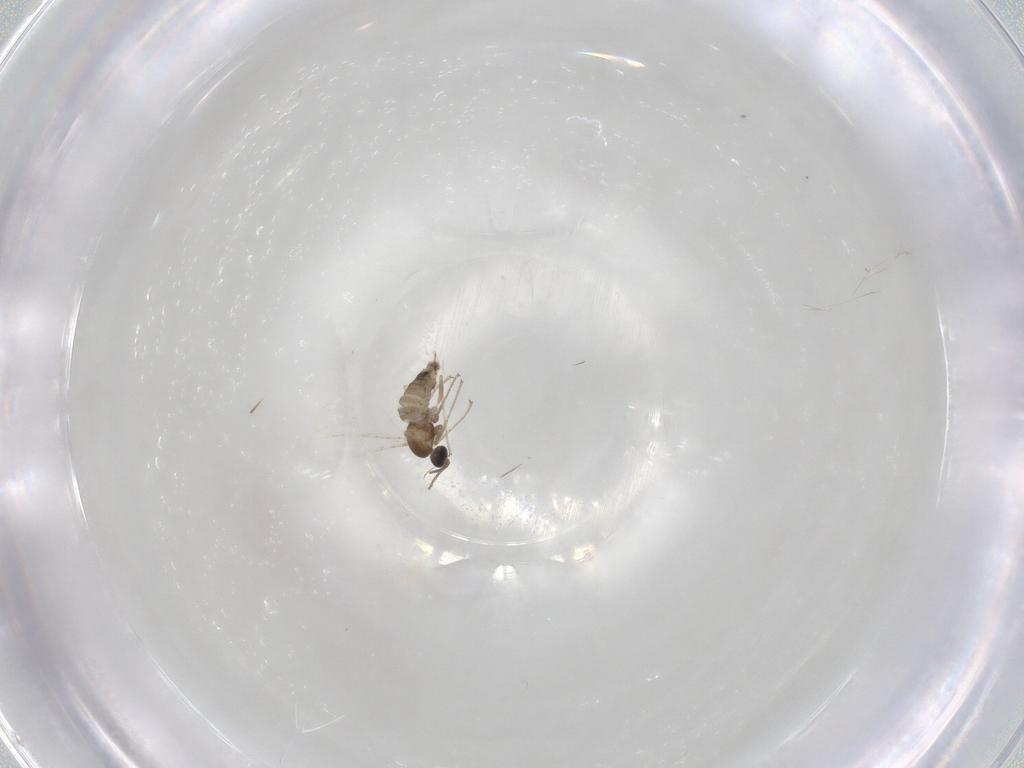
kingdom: Animalia
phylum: Arthropoda
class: Insecta
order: Diptera
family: Cecidomyiidae
